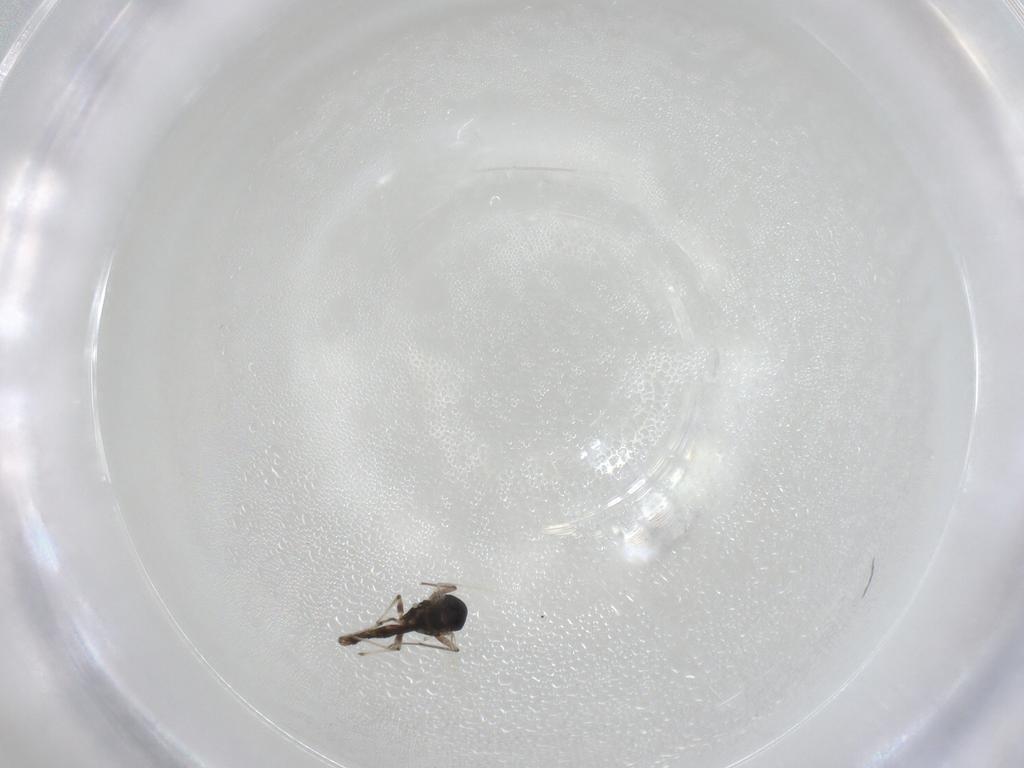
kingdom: Animalia
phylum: Arthropoda
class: Insecta
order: Diptera
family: Chironomidae
